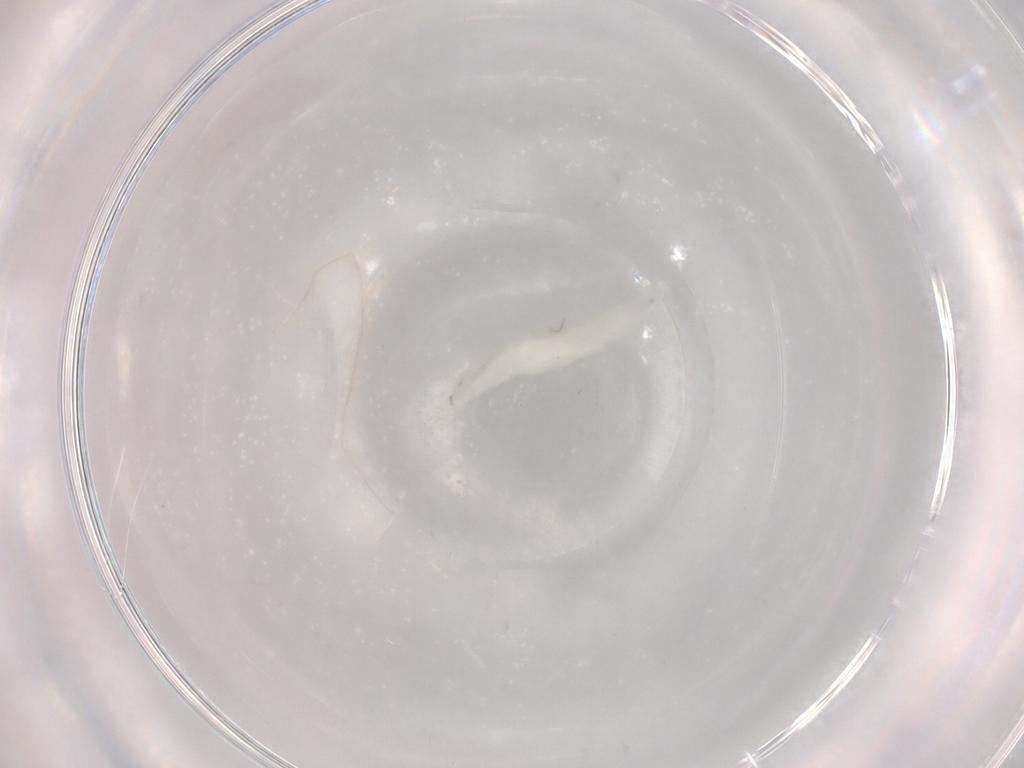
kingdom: Animalia
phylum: Arthropoda
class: Insecta
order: Diptera
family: Cecidomyiidae
